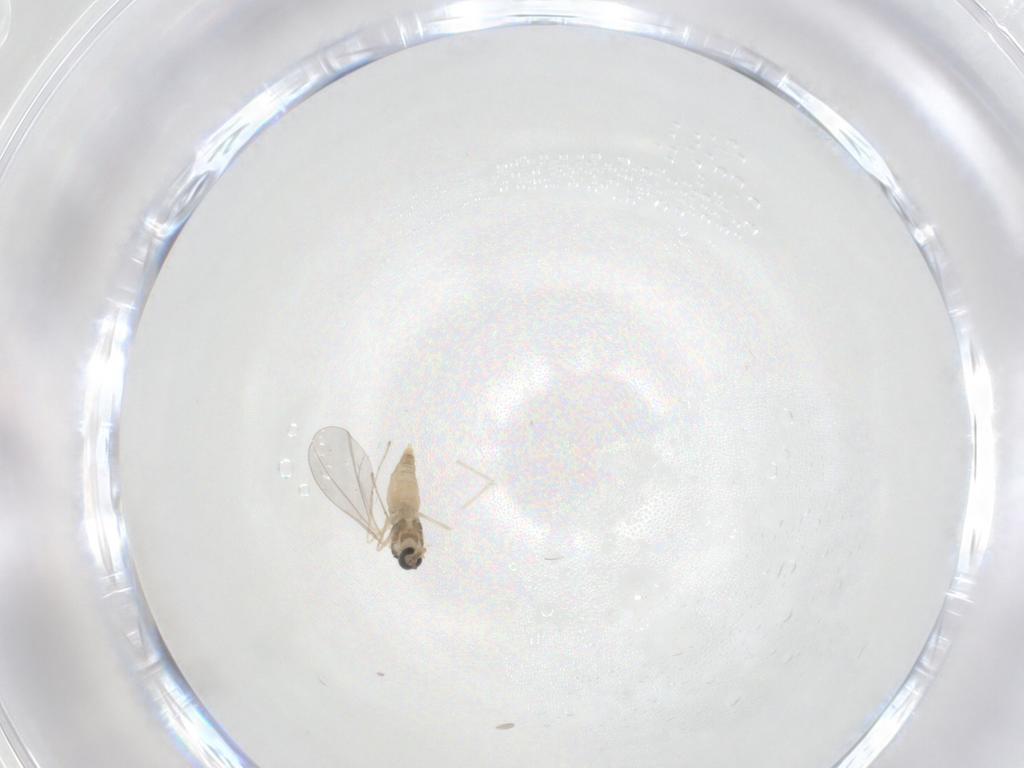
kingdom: Animalia
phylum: Arthropoda
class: Insecta
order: Diptera
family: Cecidomyiidae
